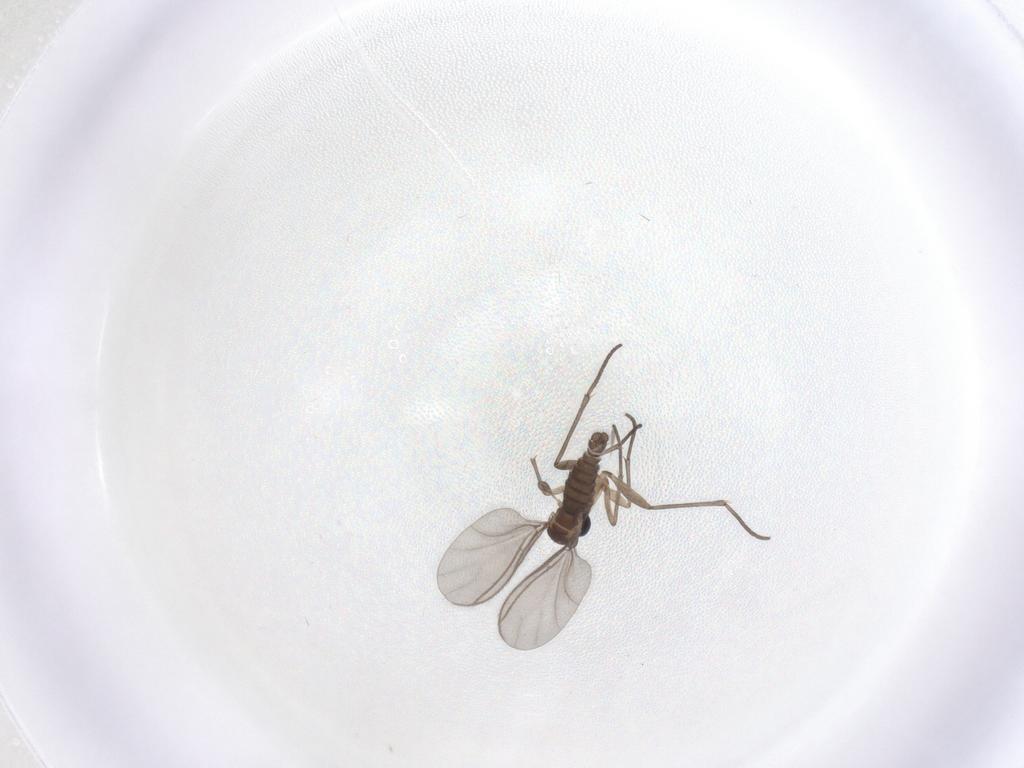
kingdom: Animalia
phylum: Arthropoda
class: Insecta
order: Diptera
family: Sciaridae
